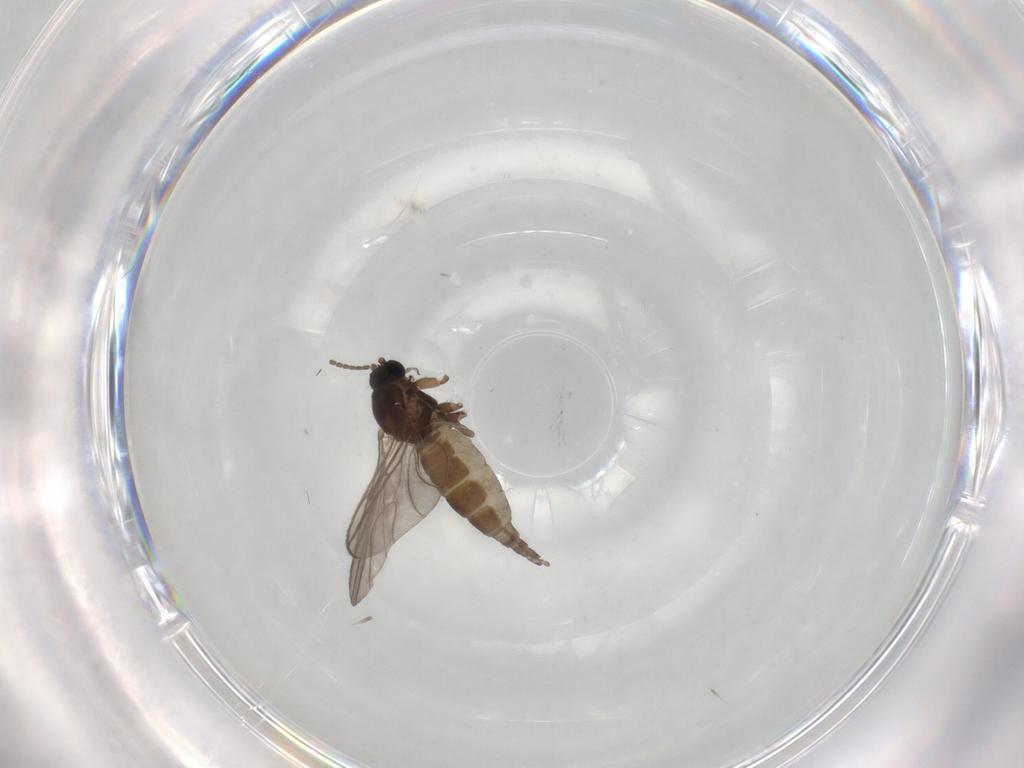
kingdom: Animalia
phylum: Arthropoda
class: Insecta
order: Diptera
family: Sciaridae
